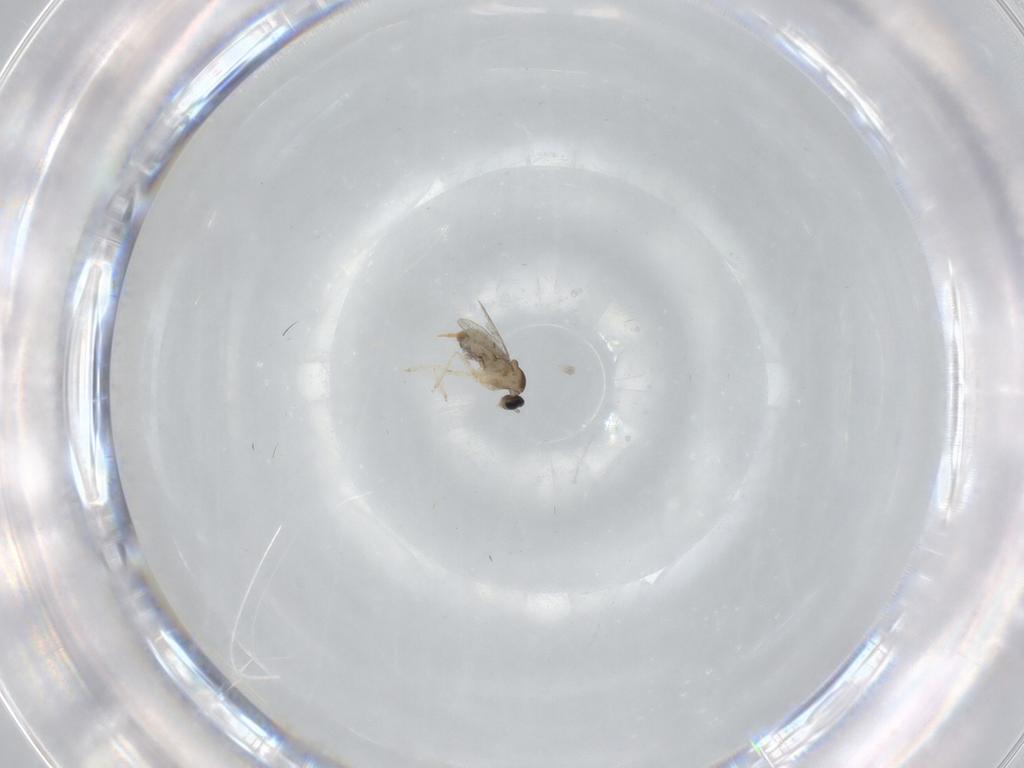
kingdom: Animalia
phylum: Arthropoda
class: Insecta
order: Diptera
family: Cecidomyiidae
